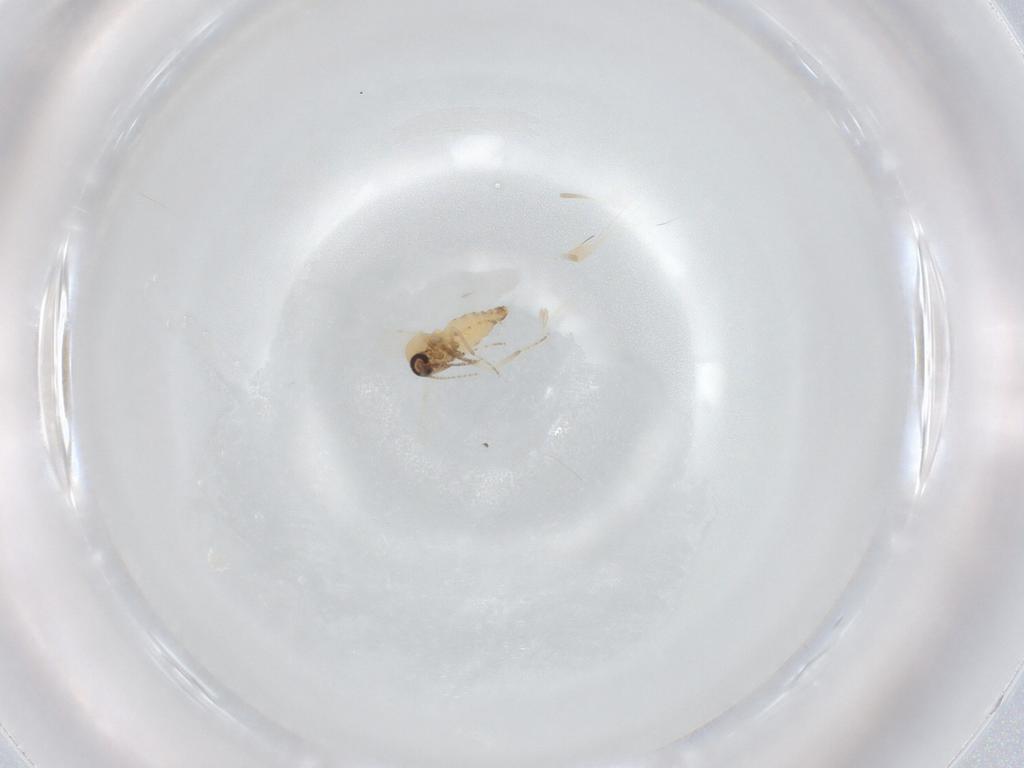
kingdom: Animalia
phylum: Arthropoda
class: Insecta
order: Diptera
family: Ceratopogonidae
